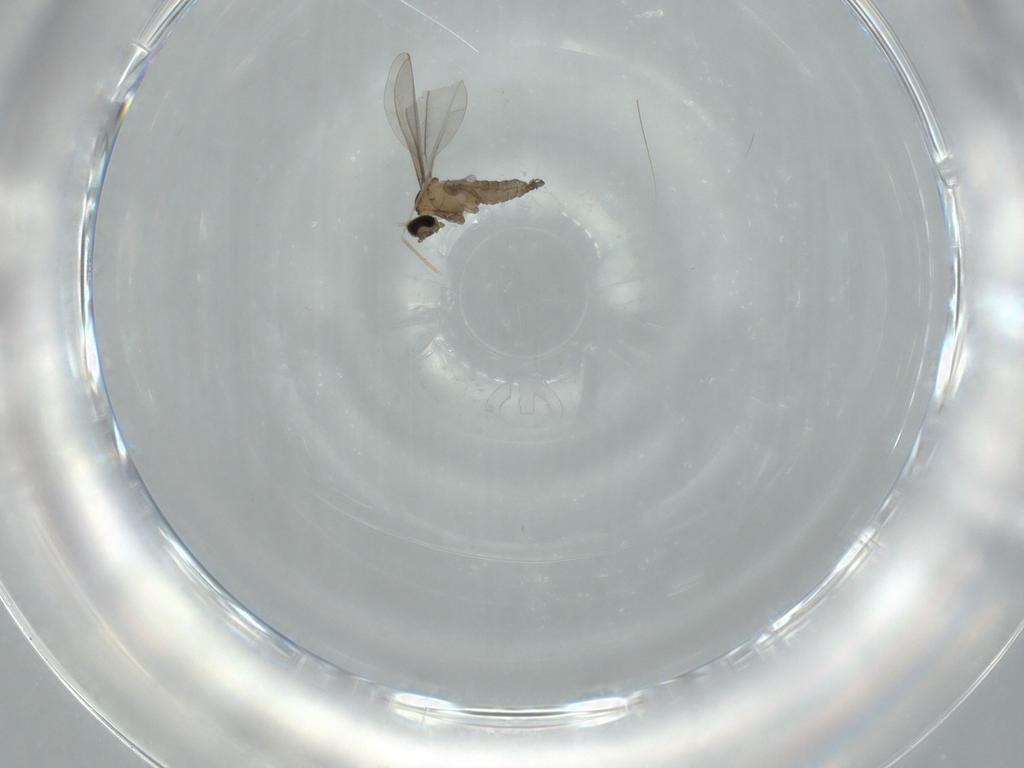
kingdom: Animalia
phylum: Arthropoda
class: Insecta
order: Diptera
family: Cecidomyiidae
